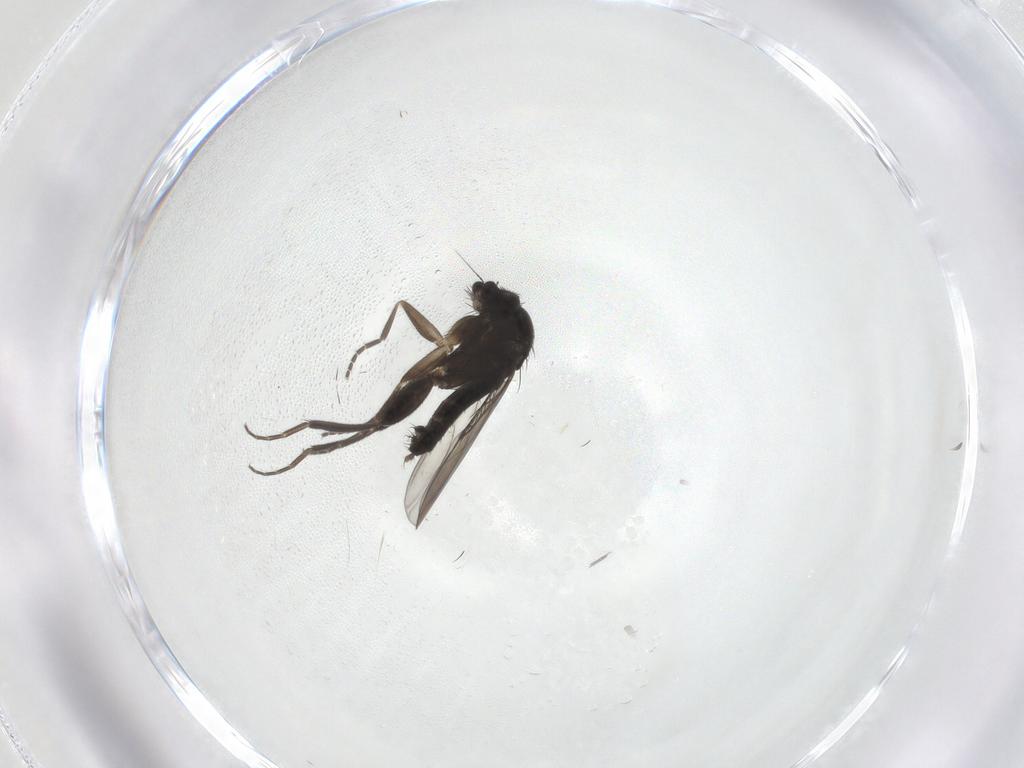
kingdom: Animalia
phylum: Arthropoda
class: Insecta
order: Diptera
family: Phoridae
